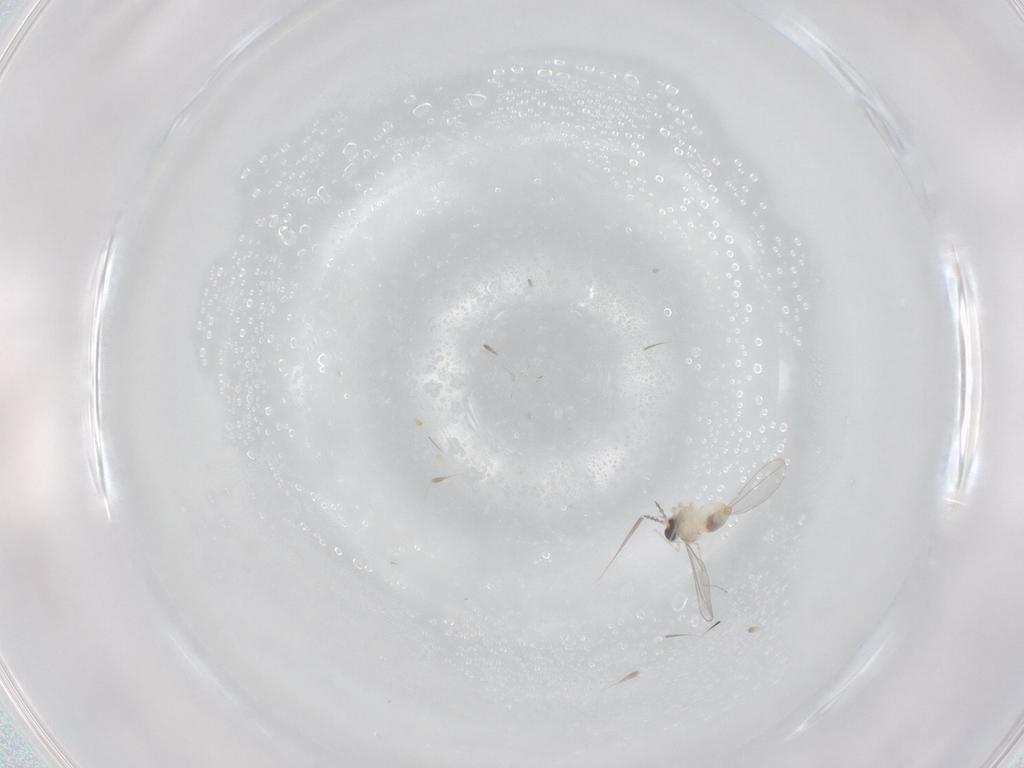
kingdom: Animalia
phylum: Arthropoda
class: Insecta
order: Diptera
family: Cecidomyiidae
